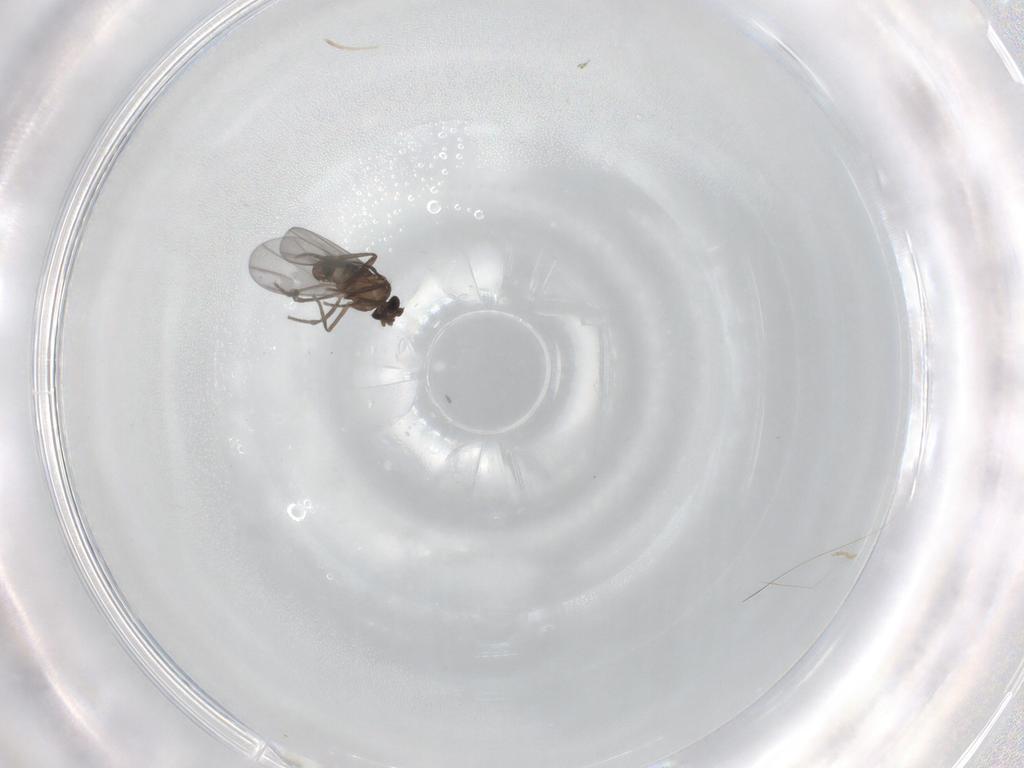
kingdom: Animalia
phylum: Arthropoda
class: Insecta
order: Diptera
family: Phoridae
